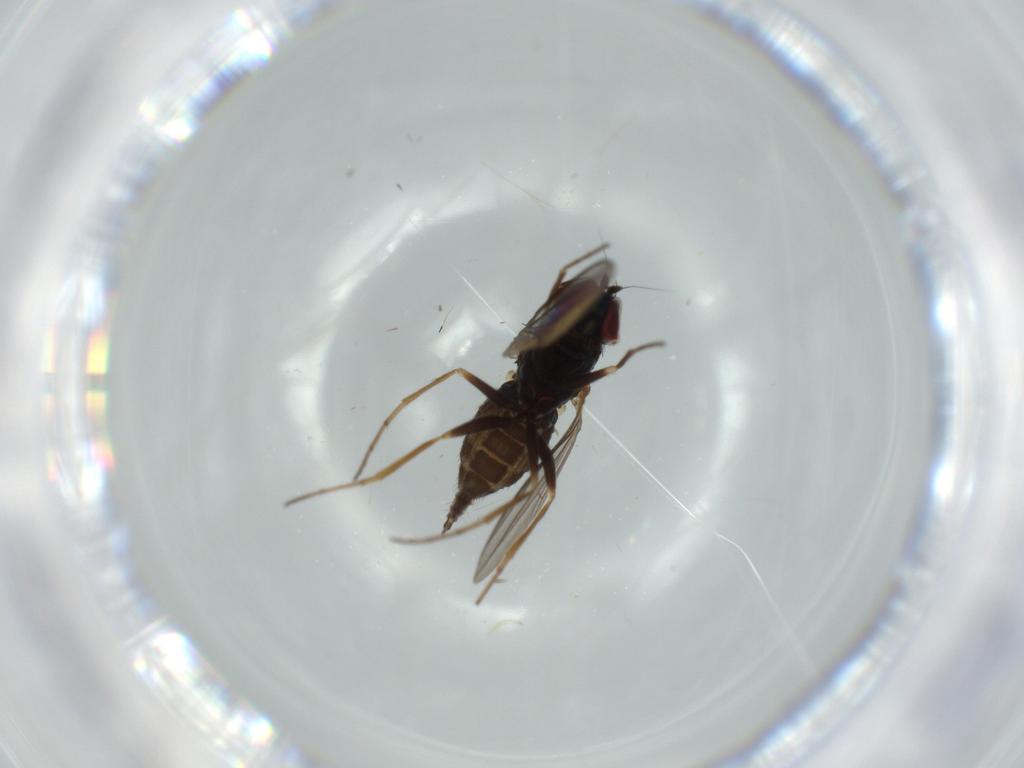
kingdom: Animalia
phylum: Arthropoda
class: Insecta
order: Diptera
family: Dolichopodidae
